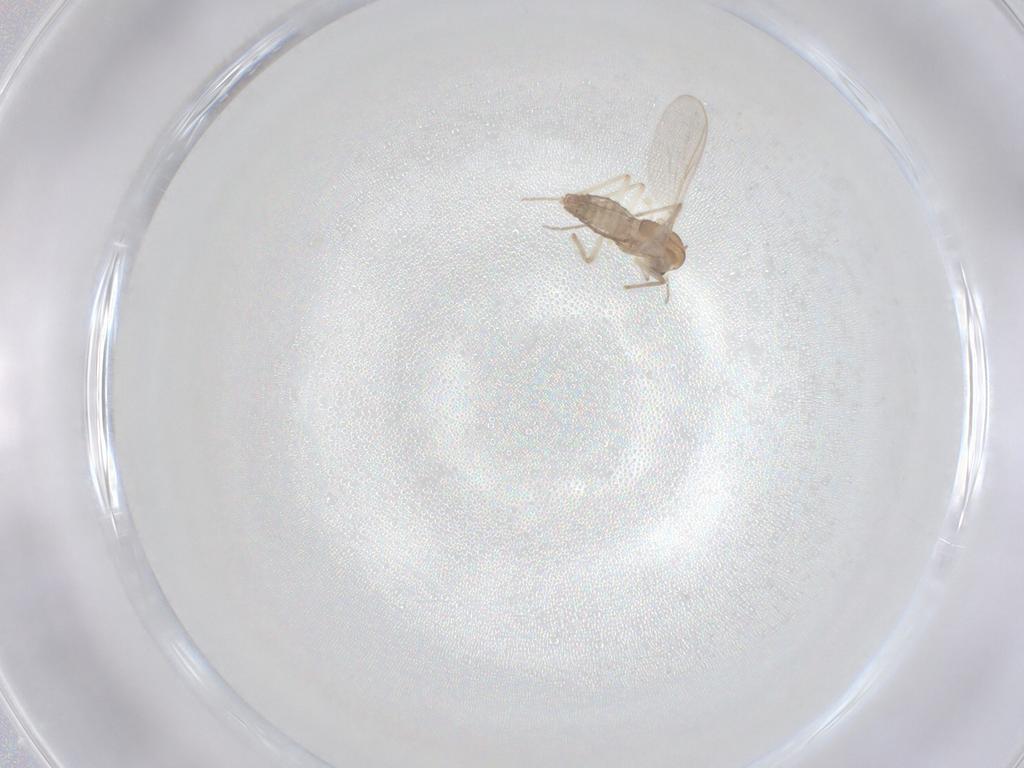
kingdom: Animalia
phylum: Arthropoda
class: Insecta
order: Diptera
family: Chironomidae
